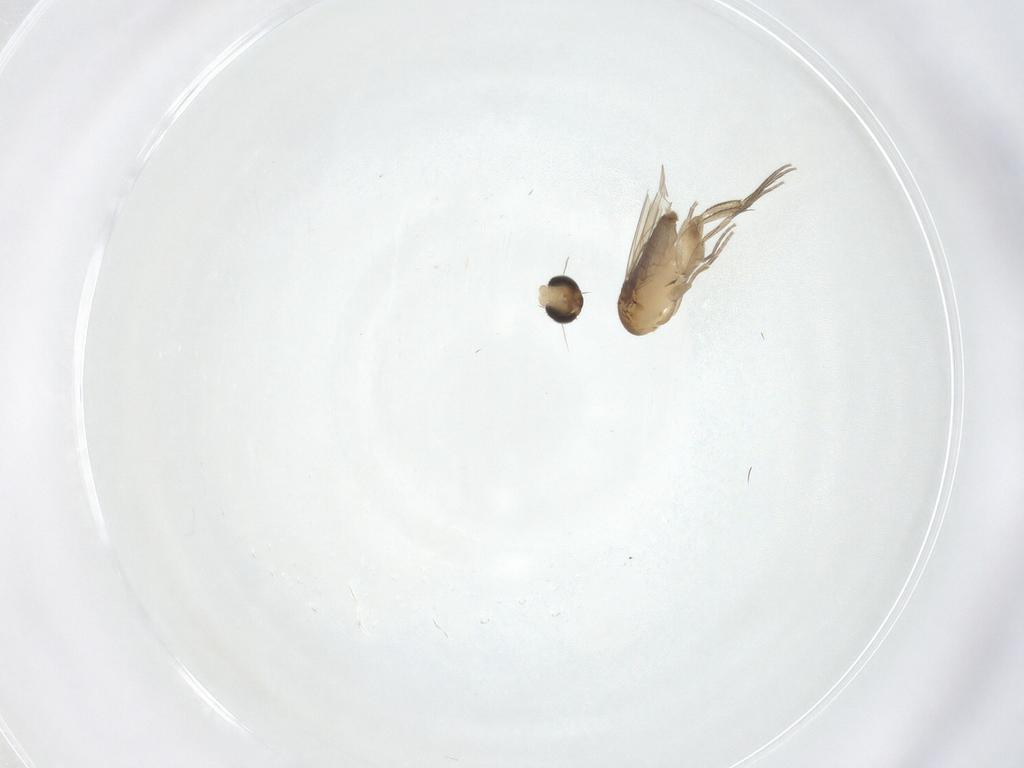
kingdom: Animalia
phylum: Arthropoda
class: Insecta
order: Diptera
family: Phoridae
